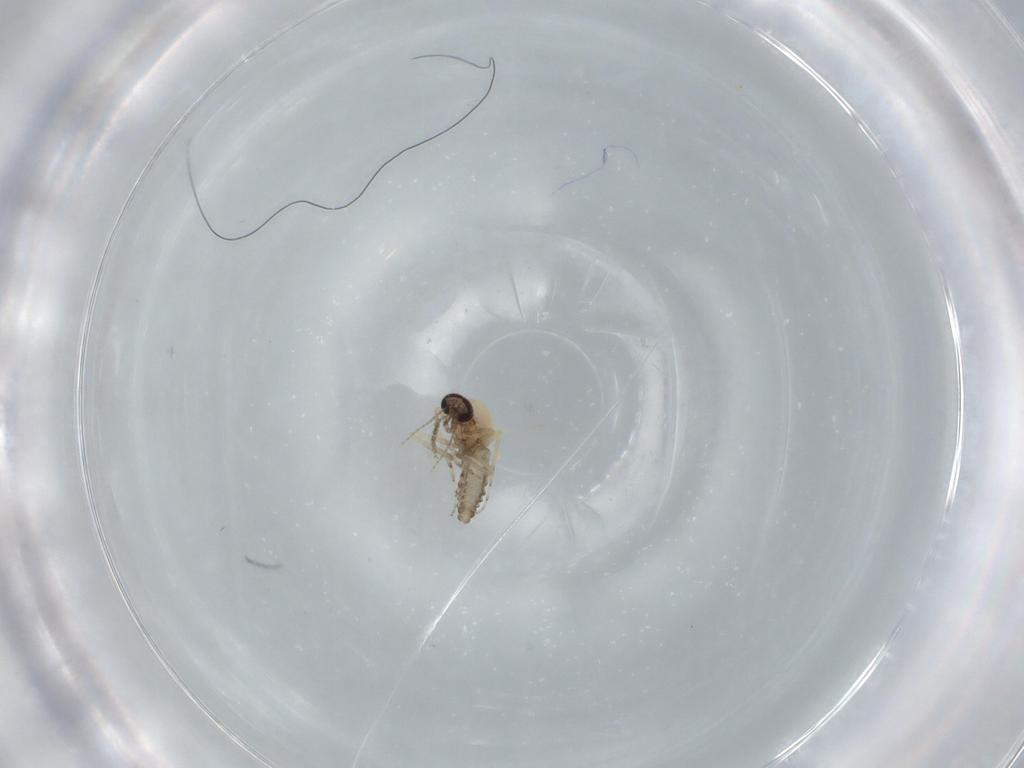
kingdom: Animalia
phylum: Arthropoda
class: Insecta
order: Diptera
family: Ceratopogonidae
